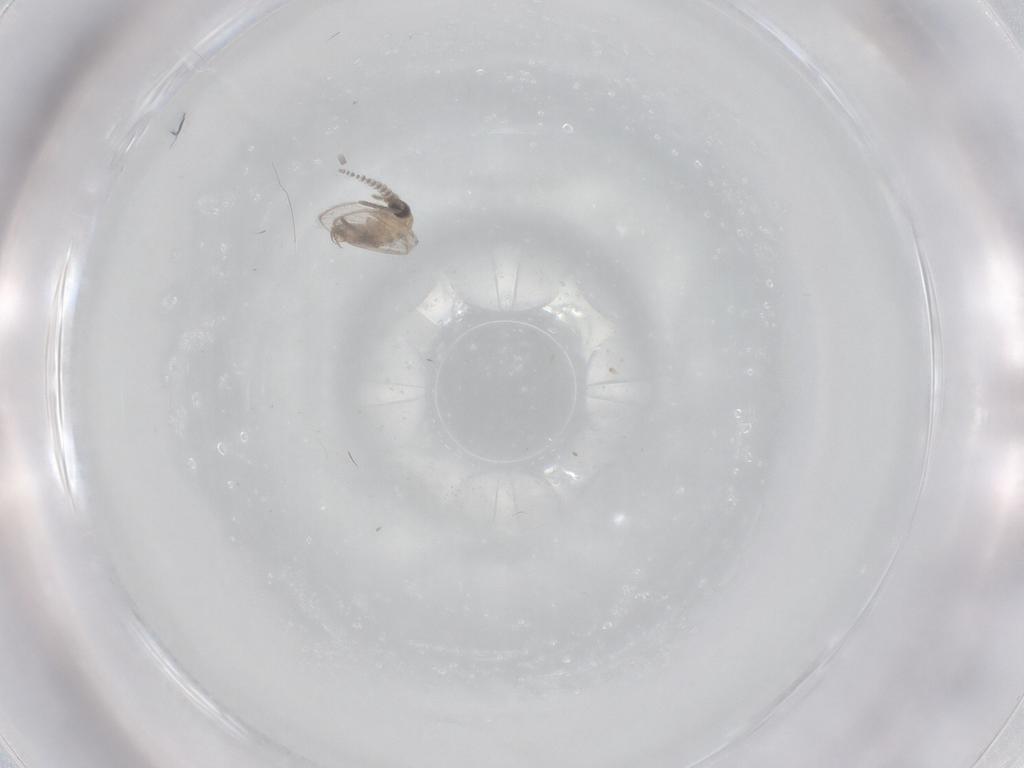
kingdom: Animalia
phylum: Arthropoda
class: Insecta
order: Diptera
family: Psychodidae
